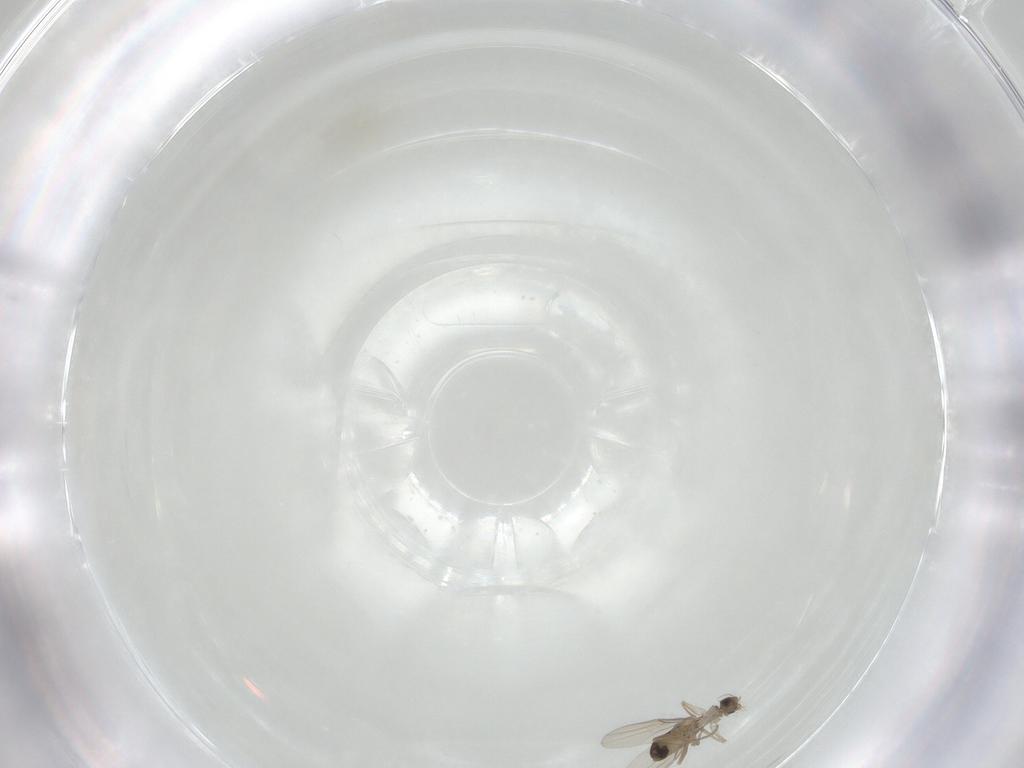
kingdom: Animalia
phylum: Arthropoda
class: Insecta
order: Diptera
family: Phoridae
